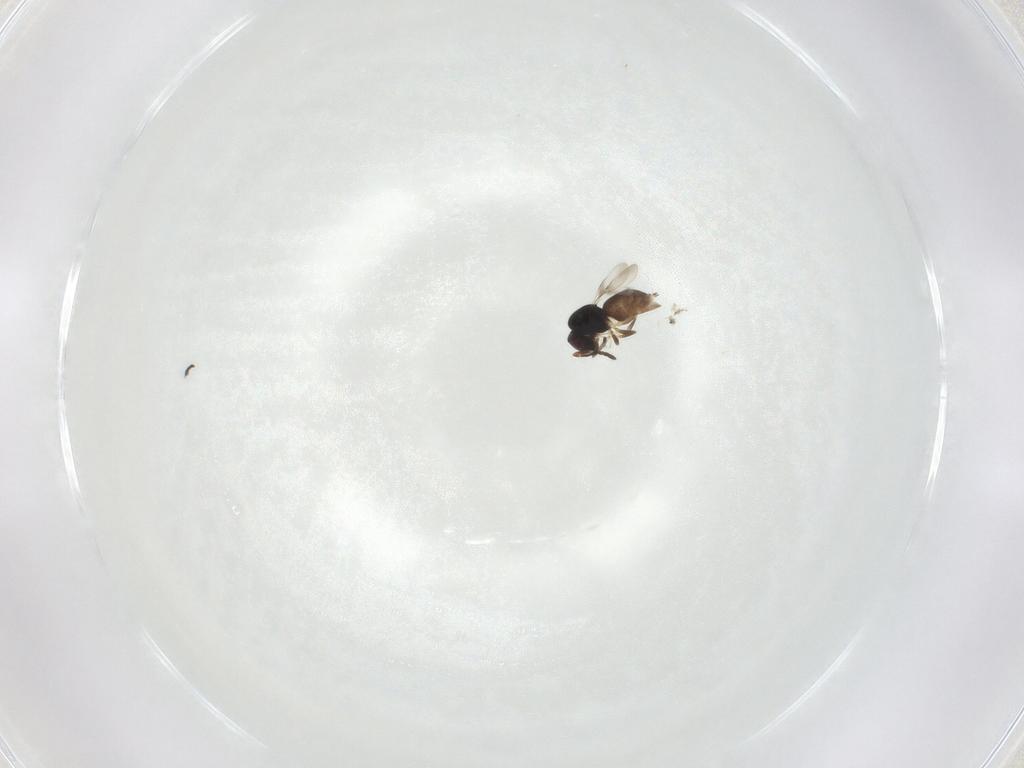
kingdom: Animalia
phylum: Arthropoda
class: Insecta
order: Hymenoptera
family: Ceraphronidae
